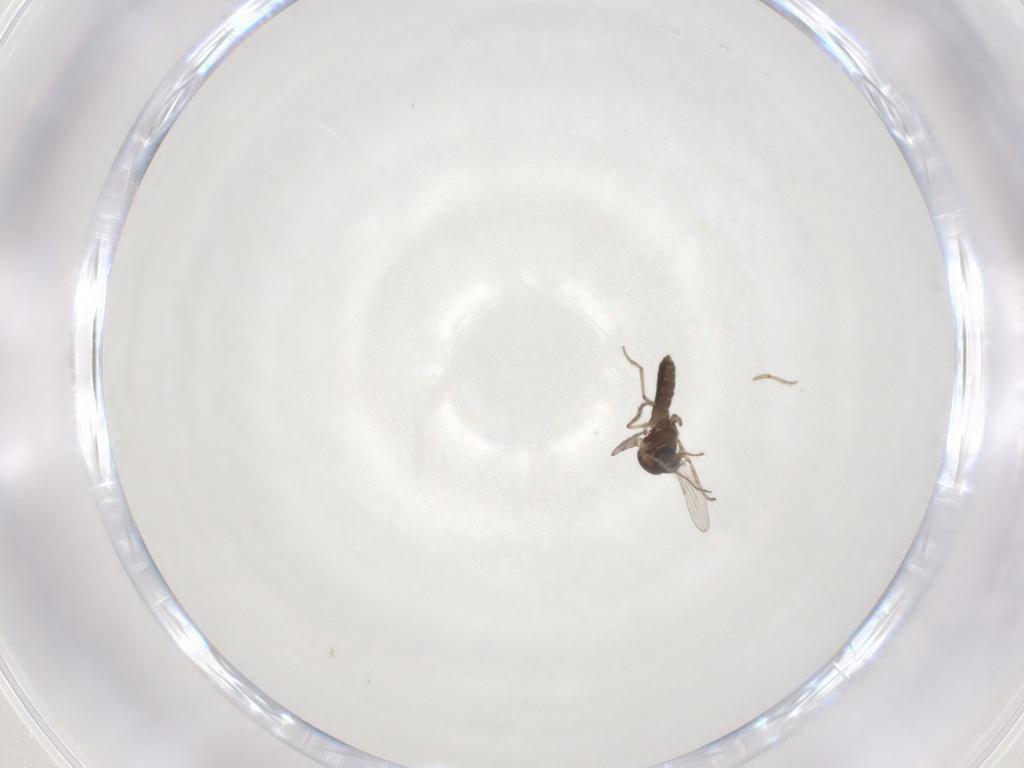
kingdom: Animalia
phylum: Arthropoda
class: Insecta
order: Diptera
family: Ceratopogonidae
